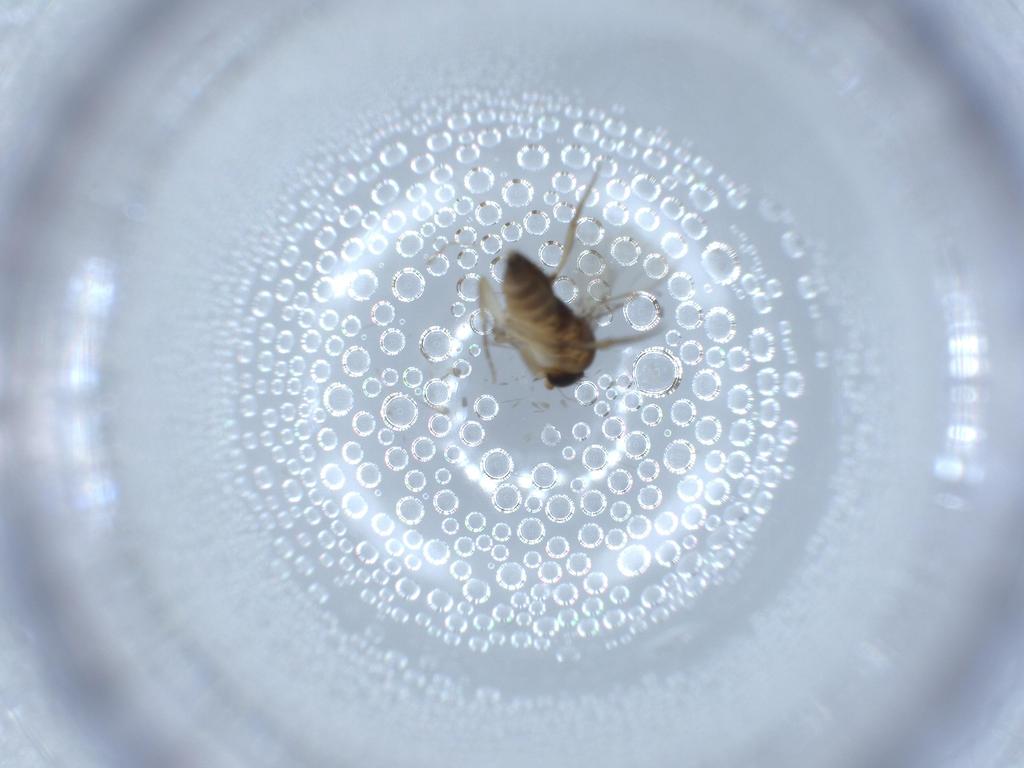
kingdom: Animalia
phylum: Arthropoda
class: Insecta
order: Diptera
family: Phoridae
